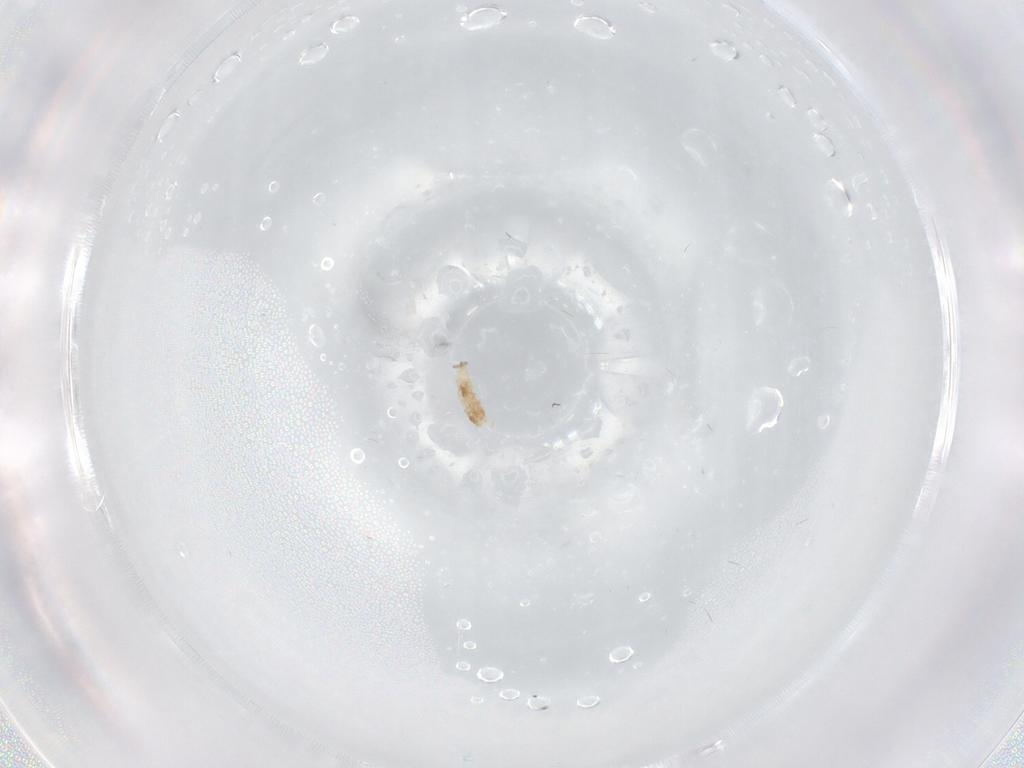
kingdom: Animalia
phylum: Arthropoda
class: Insecta
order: Diptera
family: Cecidomyiidae
